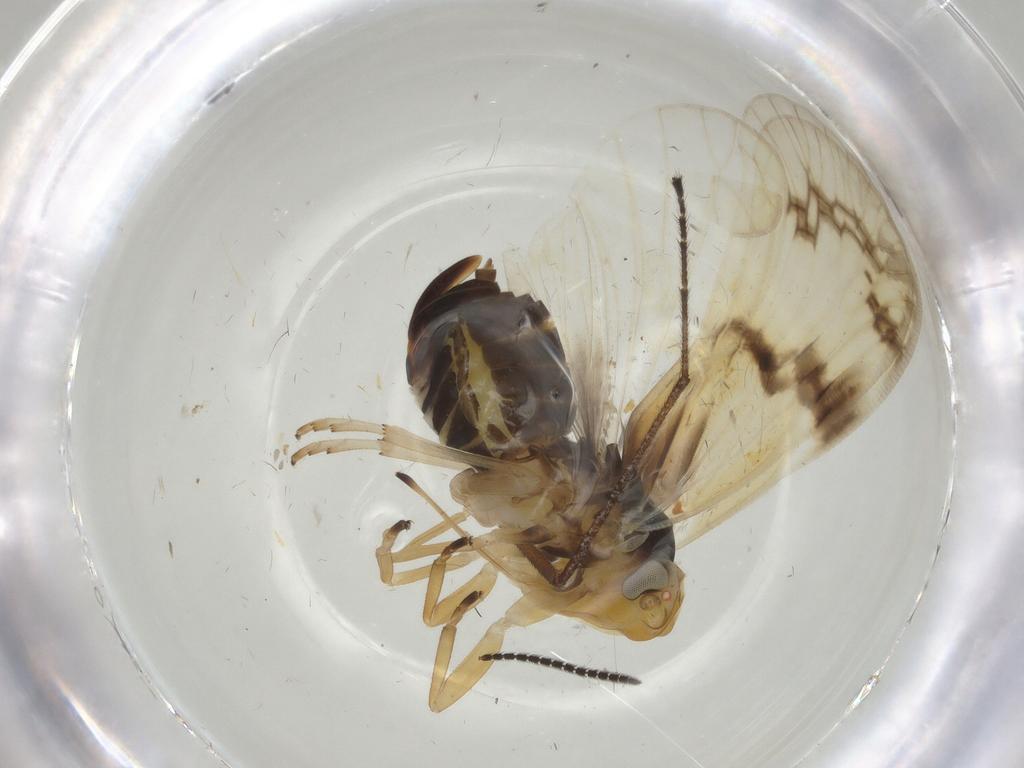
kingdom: Animalia
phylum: Arthropoda
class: Insecta
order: Hemiptera
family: Cixiidae
